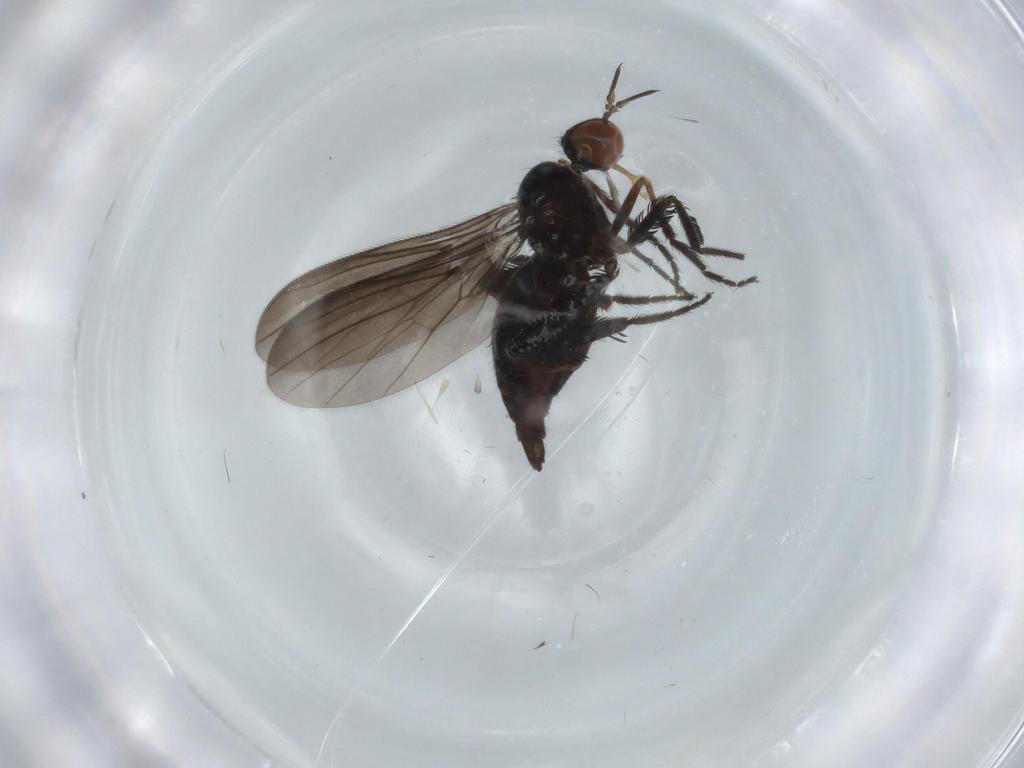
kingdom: Animalia
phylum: Arthropoda
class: Insecta
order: Diptera
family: Empididae
